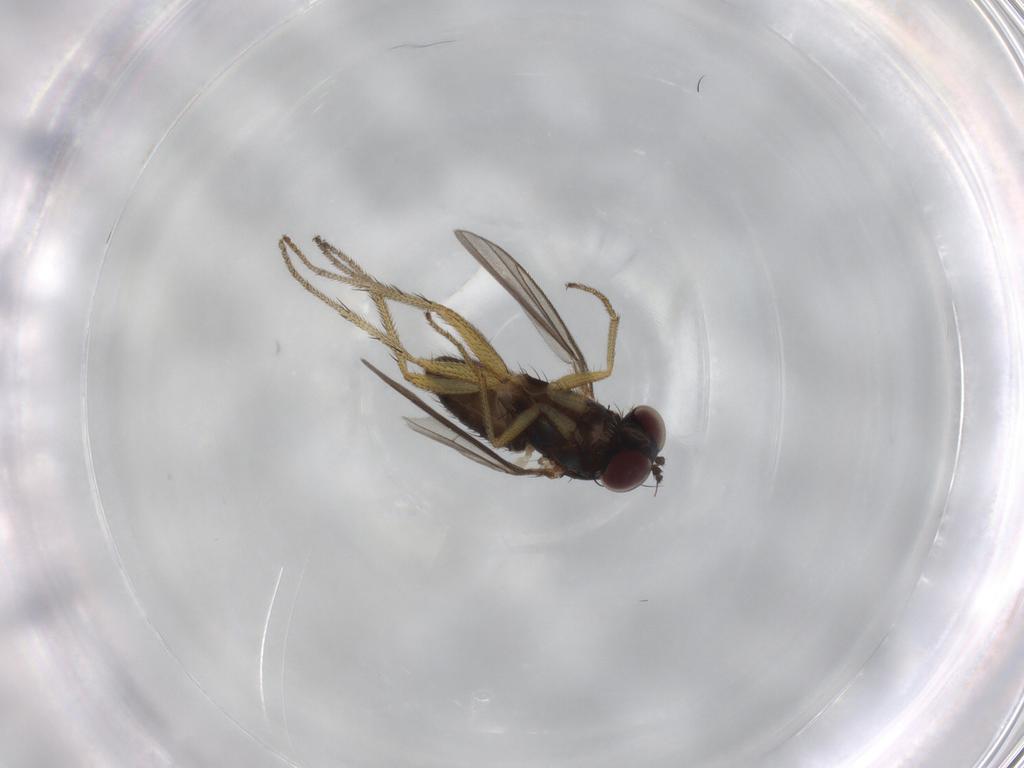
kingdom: Animalia
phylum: Arthropoda
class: Insecta
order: Diptera
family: Dolichopodidae
